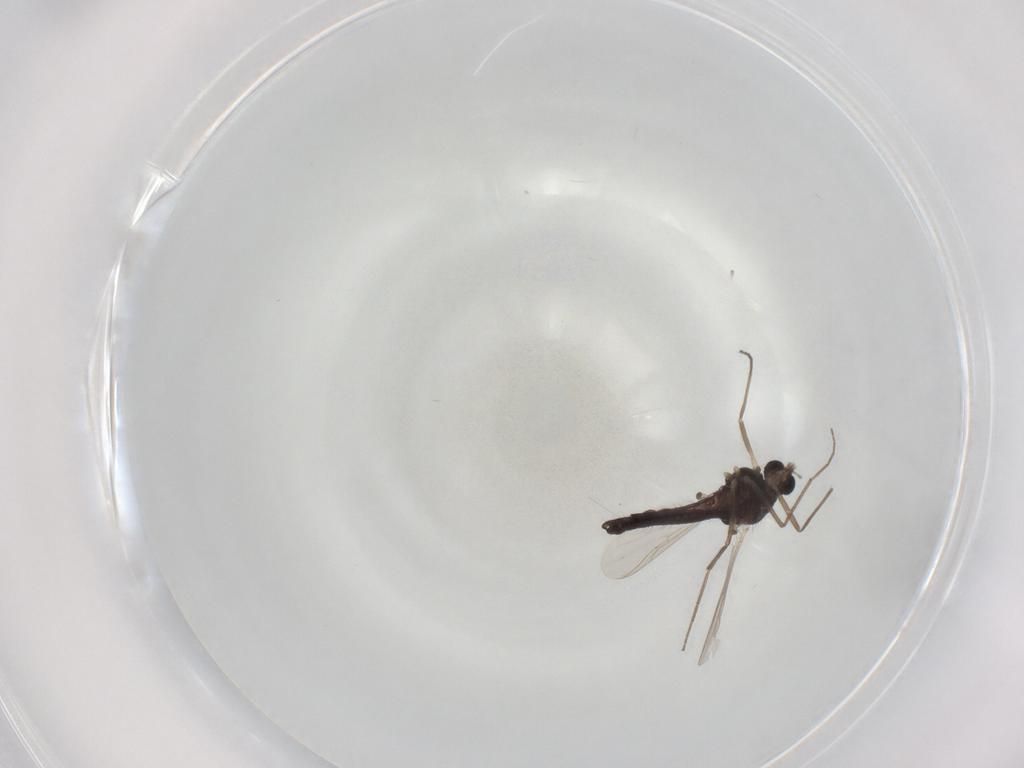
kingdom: Animalia
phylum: Arthropoda
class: Insecta
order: Diptera
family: Chironomidae
